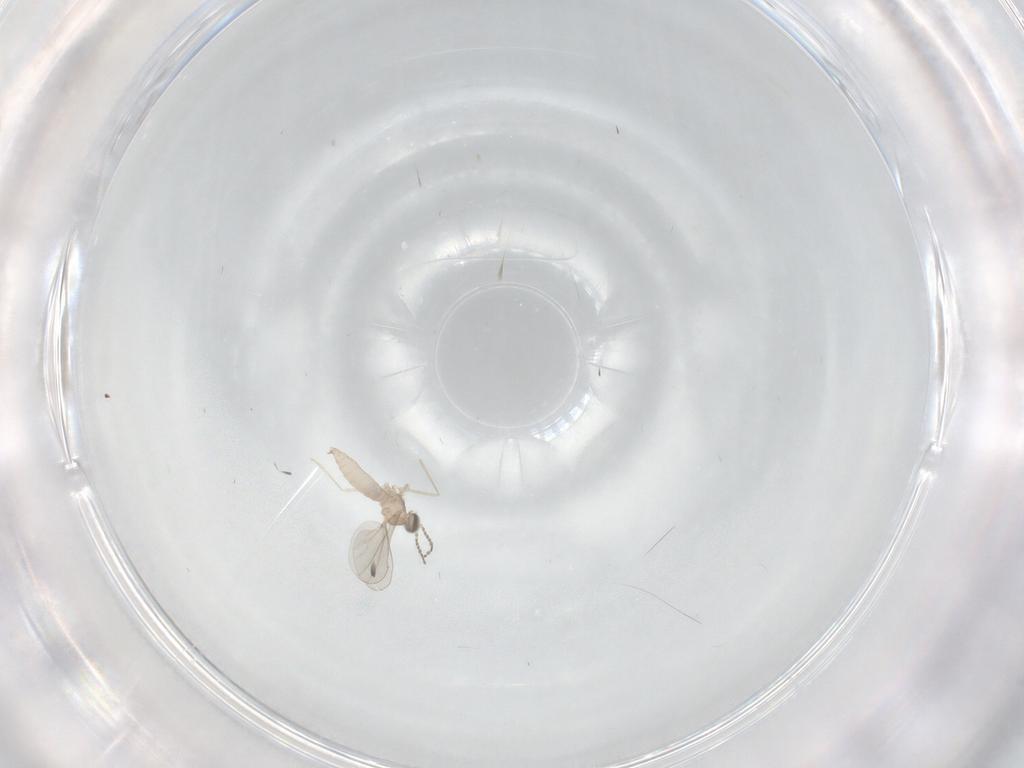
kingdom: Animalia
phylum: Arthropoda
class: Insecta
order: Diptera
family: Cecidomyiidae
